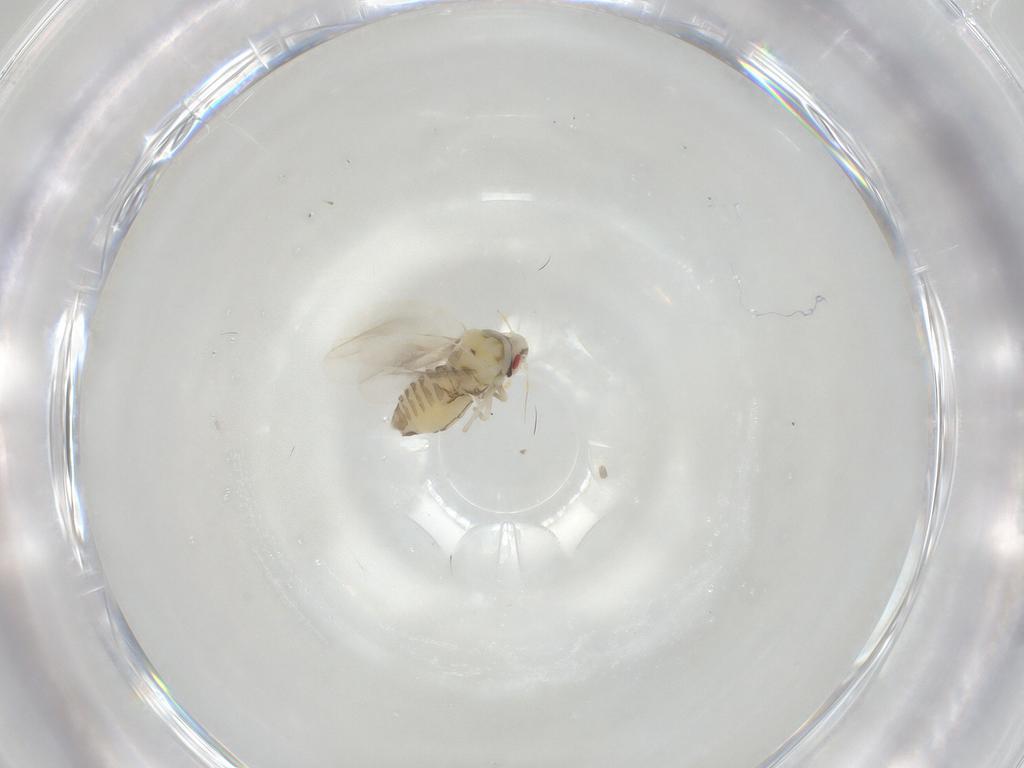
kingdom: Animalia
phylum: Arthropoda
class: Insecta
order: Hemiptera
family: Aleyrodidae
